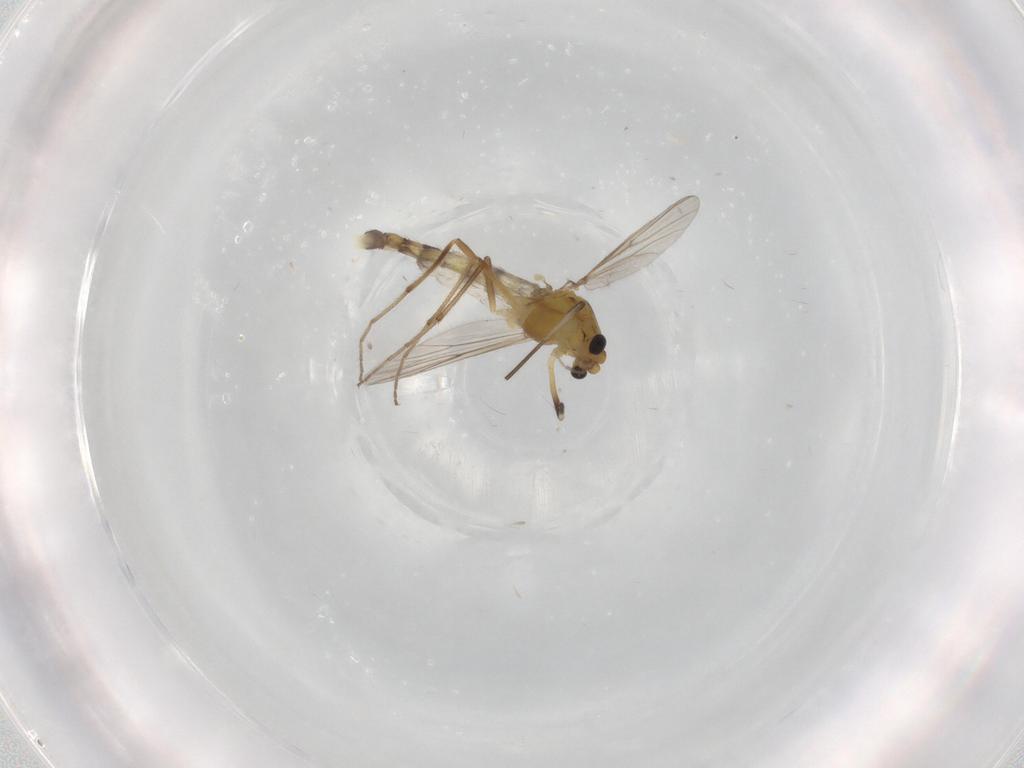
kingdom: Animalia
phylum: Arthropoda
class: Insecta
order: Diptera
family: Chironomidae
